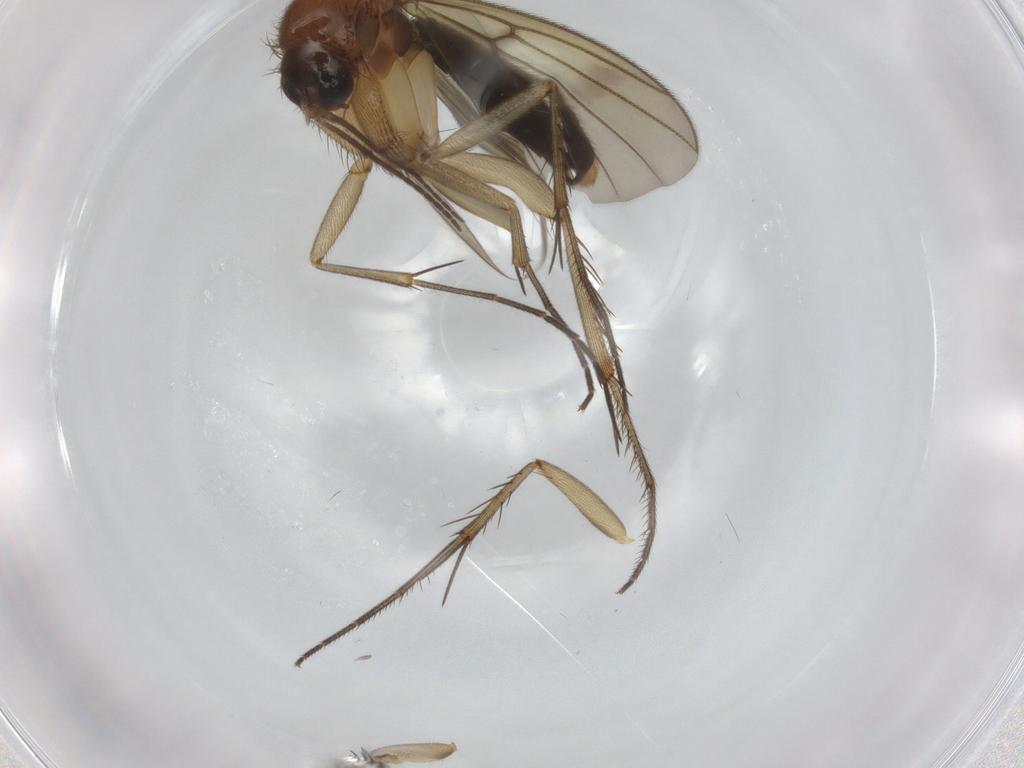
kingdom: Animalia
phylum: Arthropoda
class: Insecta
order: Diptera
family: Mycetophilidae
